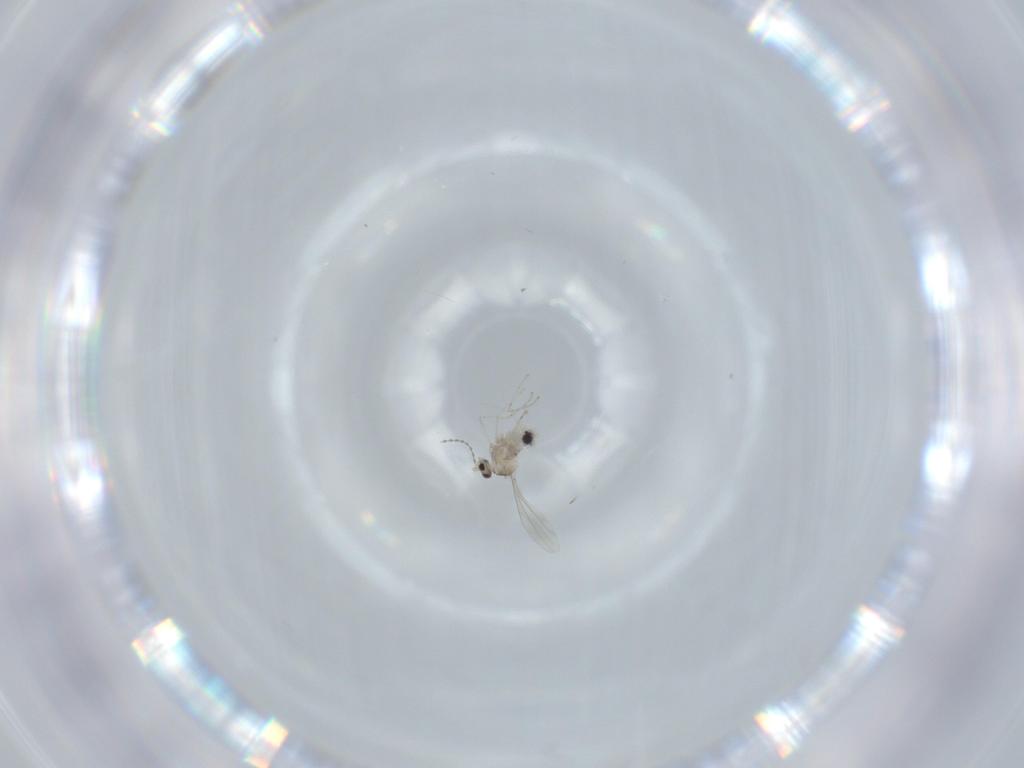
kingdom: Animalia
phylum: Arthropoda
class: Insecta
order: Diptera
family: Cecidomyiidae
